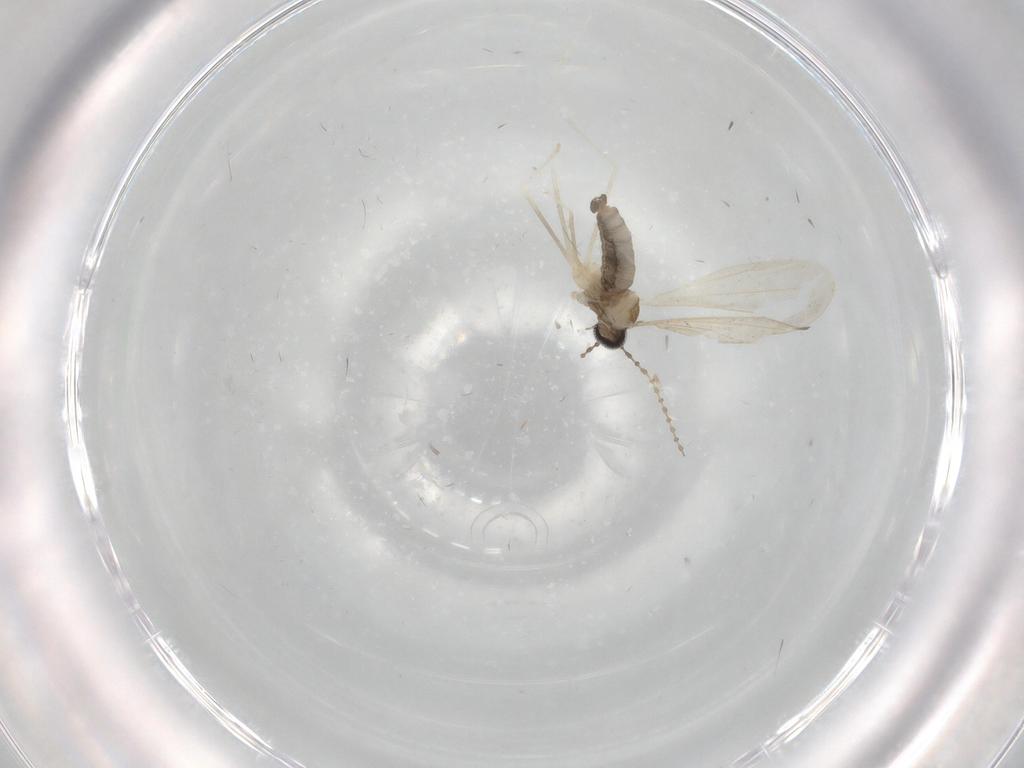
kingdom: Animalia
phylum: Arthropoda
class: Insecta
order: Diptera
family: Cecidomyiidae
